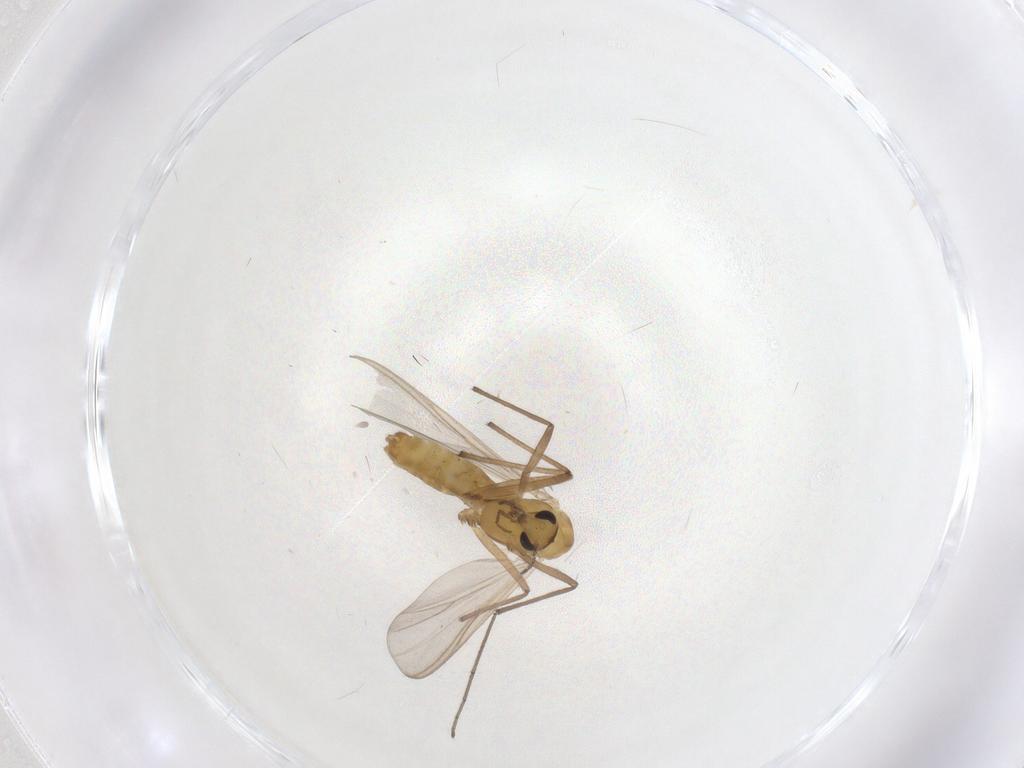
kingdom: Animalia
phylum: Arthropoda
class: Insecta
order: Diptera
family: Chironomidae
